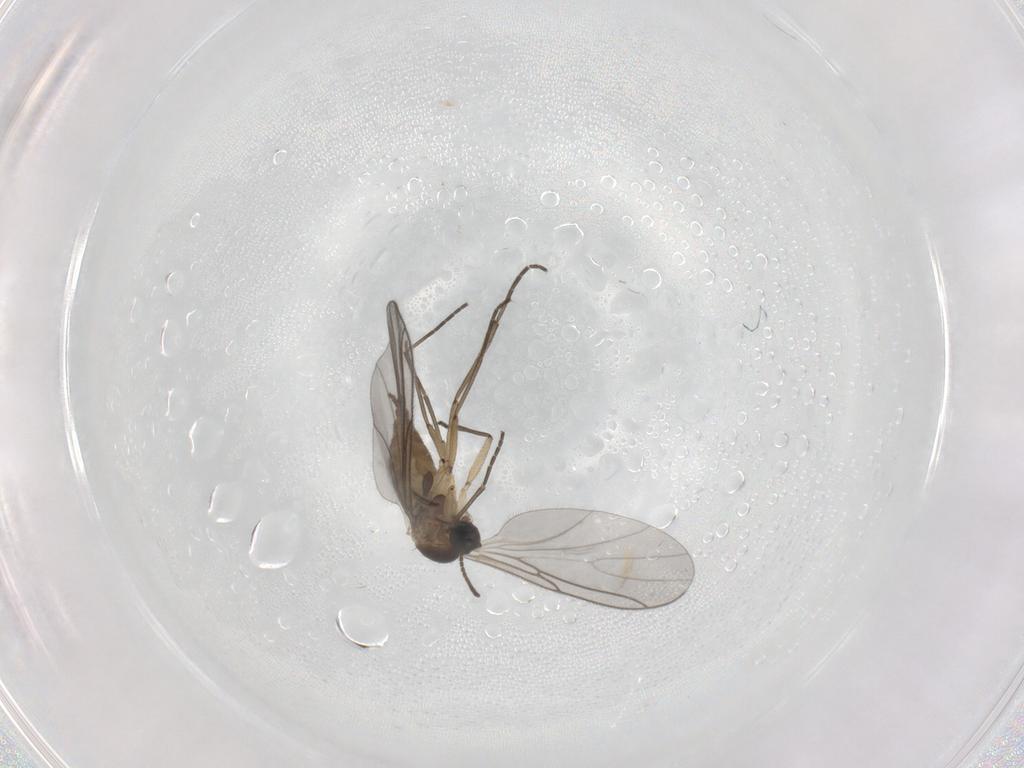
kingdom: Animalia
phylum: Arthropoda
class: Insecta
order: Diptera
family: Sciaridae
